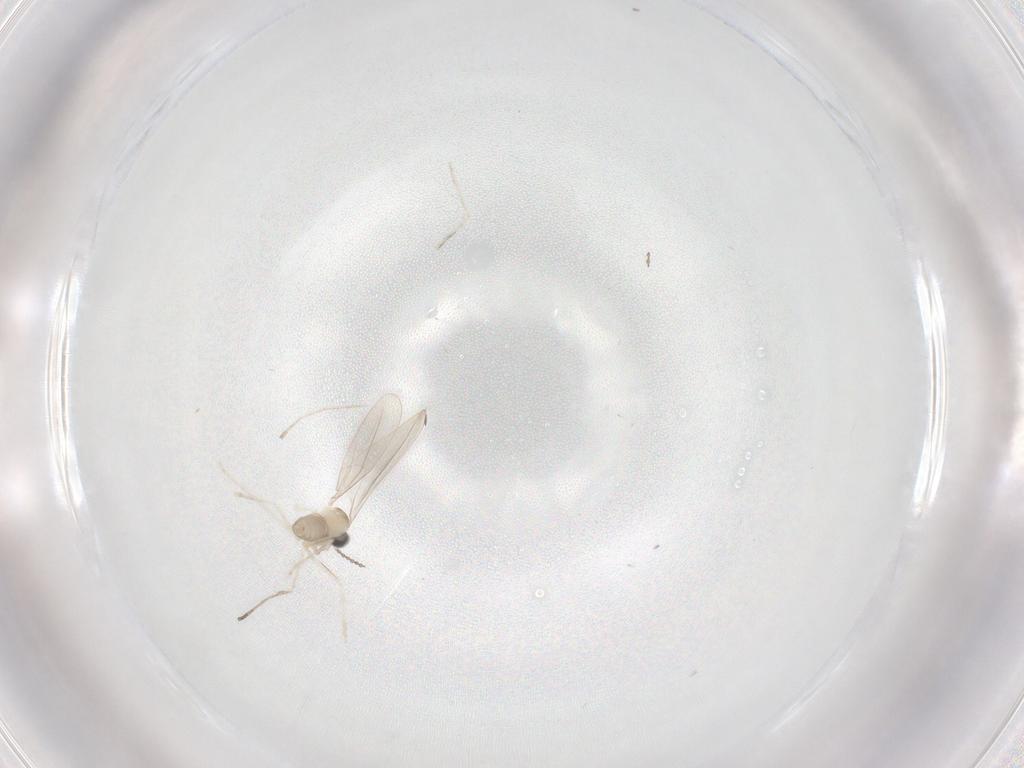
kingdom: Animalia
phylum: Arthropoda
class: Insecta
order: Diptera
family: Cecidomyiidae
